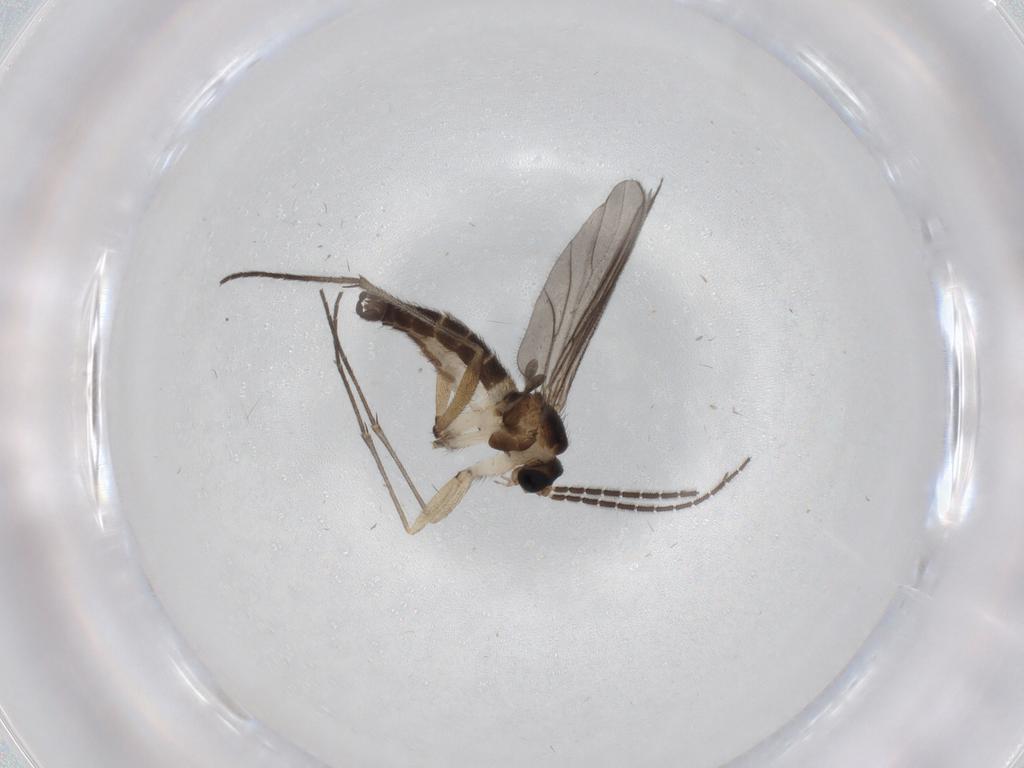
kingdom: Animalia
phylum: Arthropoda
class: Insecta
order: Diptera
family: Sciaridae
